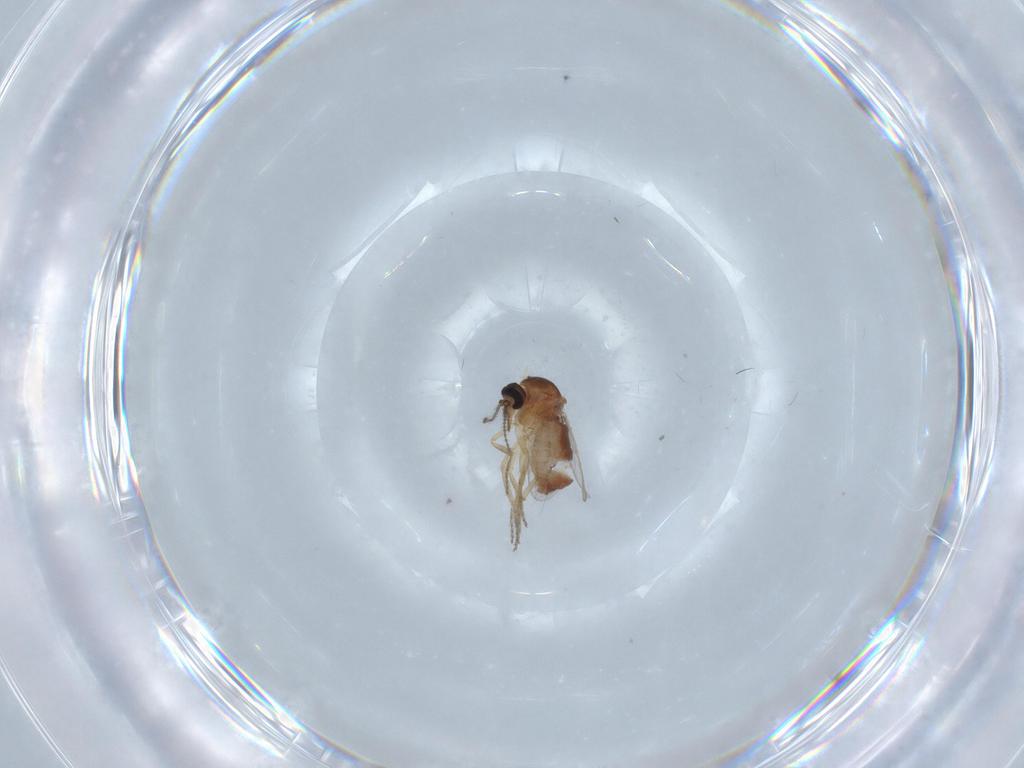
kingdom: Animalia
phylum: Arthropoda
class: Insecta
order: Diptera
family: Ceratopogonidae
